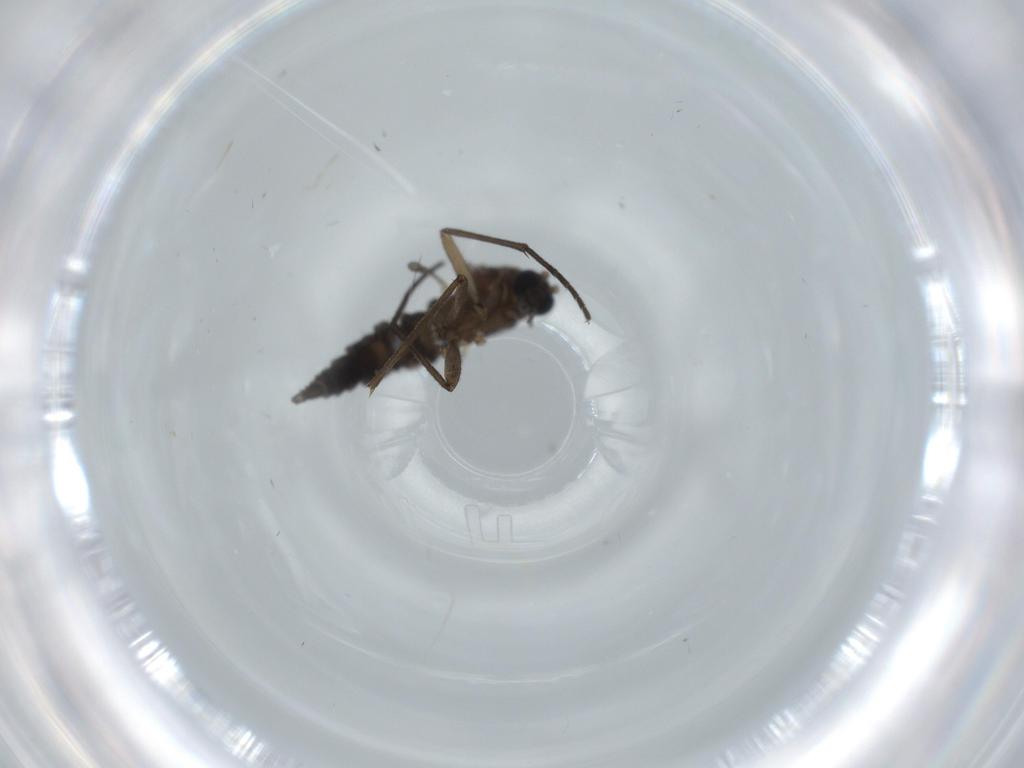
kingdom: Animalia
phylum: Arthropoda
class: Insecta
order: Diptera
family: Sciaridae
